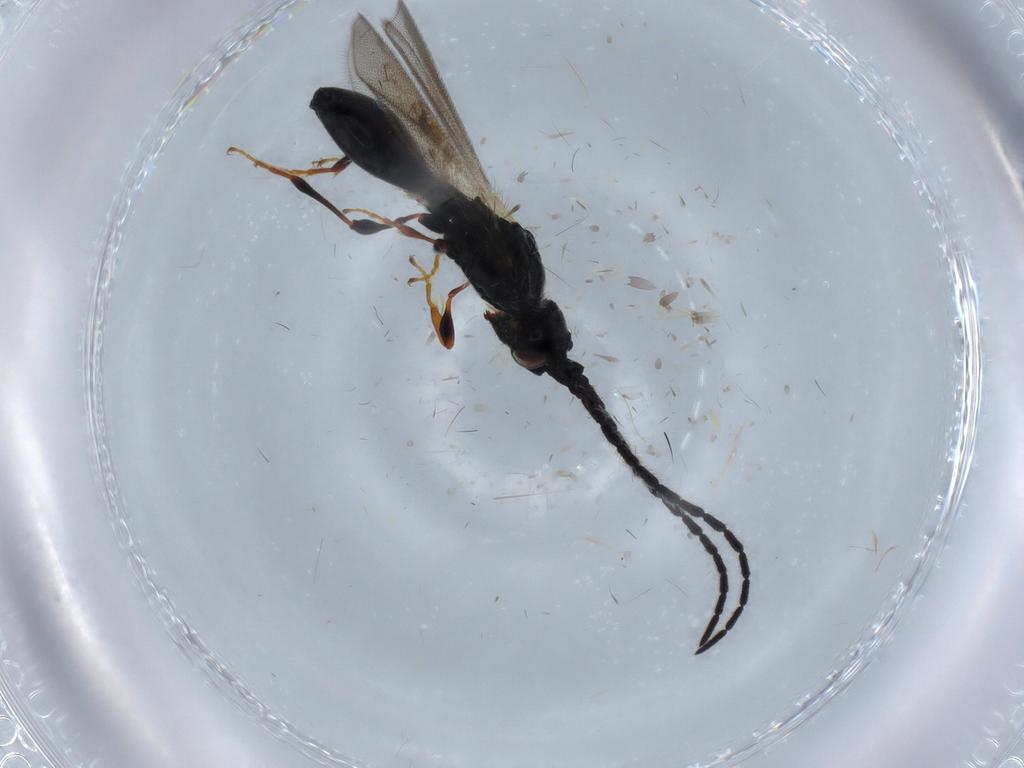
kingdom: Animalia
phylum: Arthropoda
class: Insecta
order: Hymenoptera
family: Diapriidae
